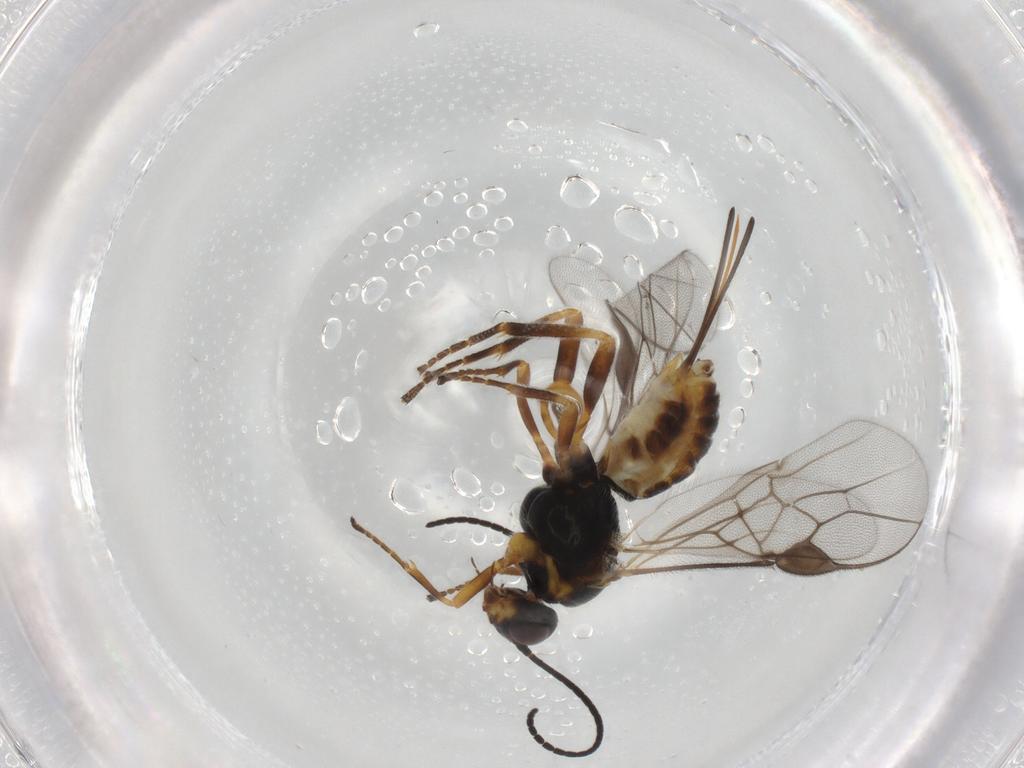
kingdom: Animalia
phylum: Arthropoda
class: Insecta
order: Hymenoptera
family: Braconidae
